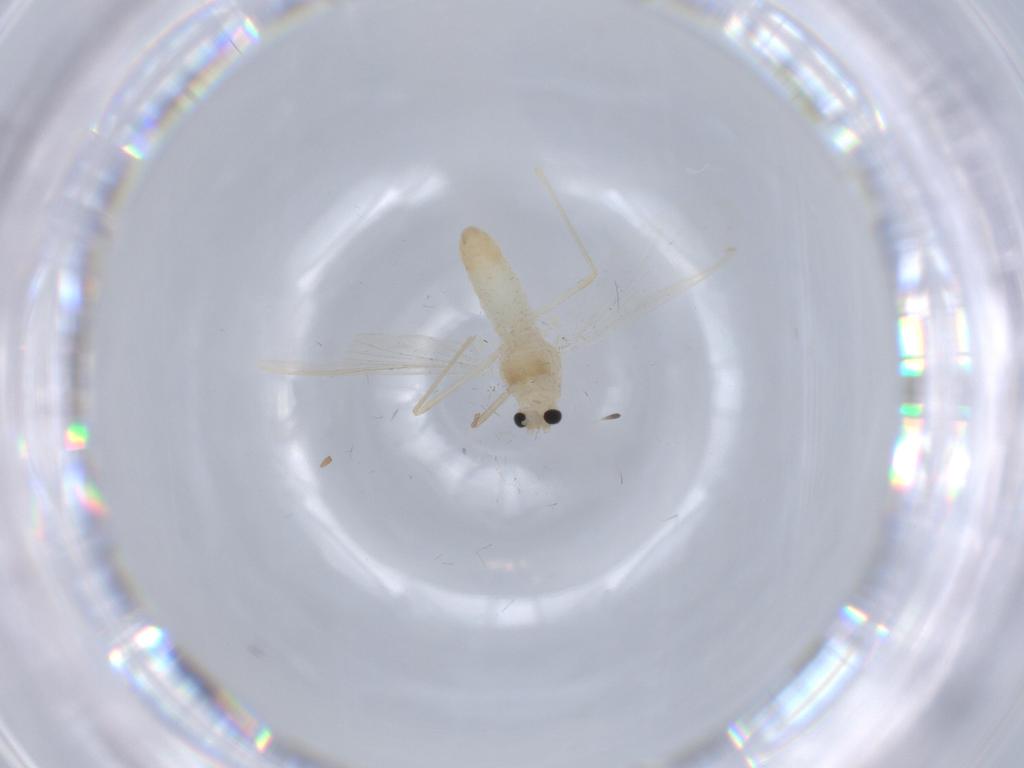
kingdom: Animalia
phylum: Arthropoda
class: Insecta
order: Diptera
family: Chironomidae
